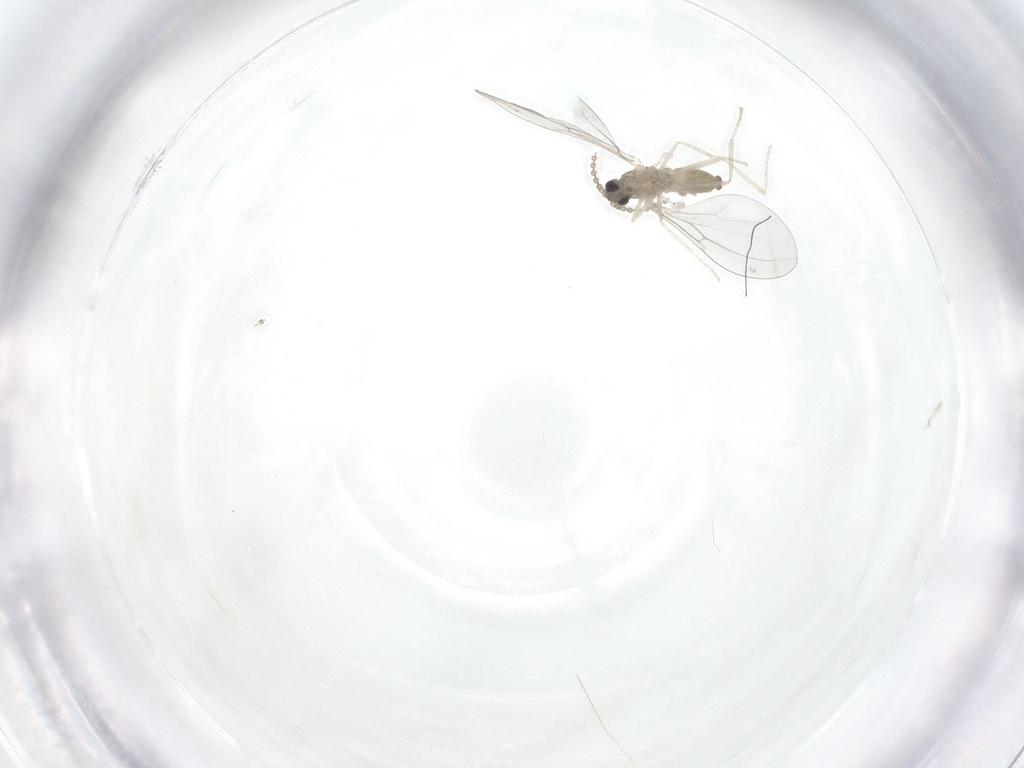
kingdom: Animalia
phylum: Arthropoda
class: Insecta
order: Diptera
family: Cecidomyiidae
